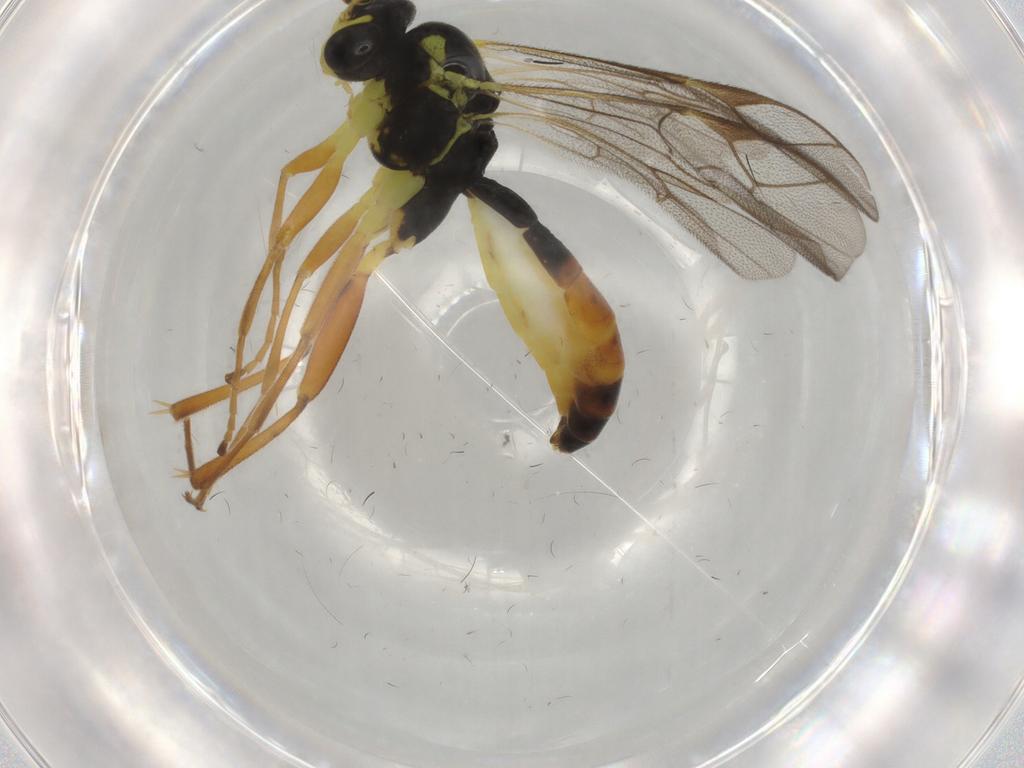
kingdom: Animalia
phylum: Arthropoda
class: Insecta
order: Hymenoptera
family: Ichneumonidae
